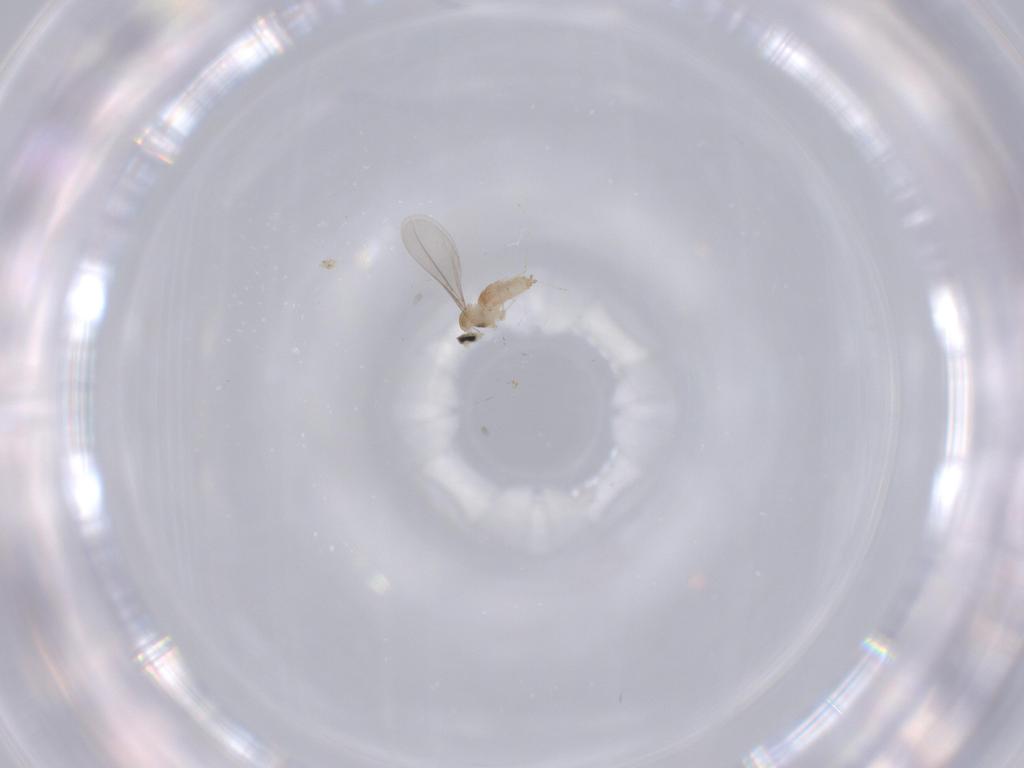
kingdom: Animalia
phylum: Arthropoda
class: Insecta
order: Diptera
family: Cecidomyiidae
